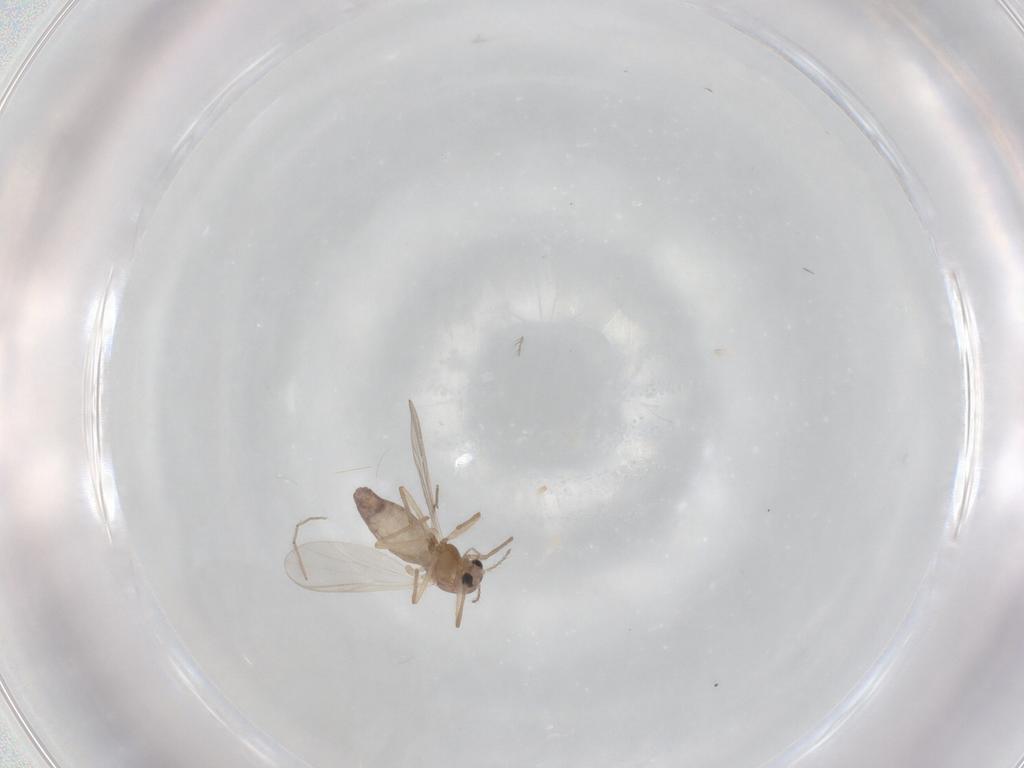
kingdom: Animalia
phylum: Arthropoda
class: Insecta
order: Diptera
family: Chironomidae
